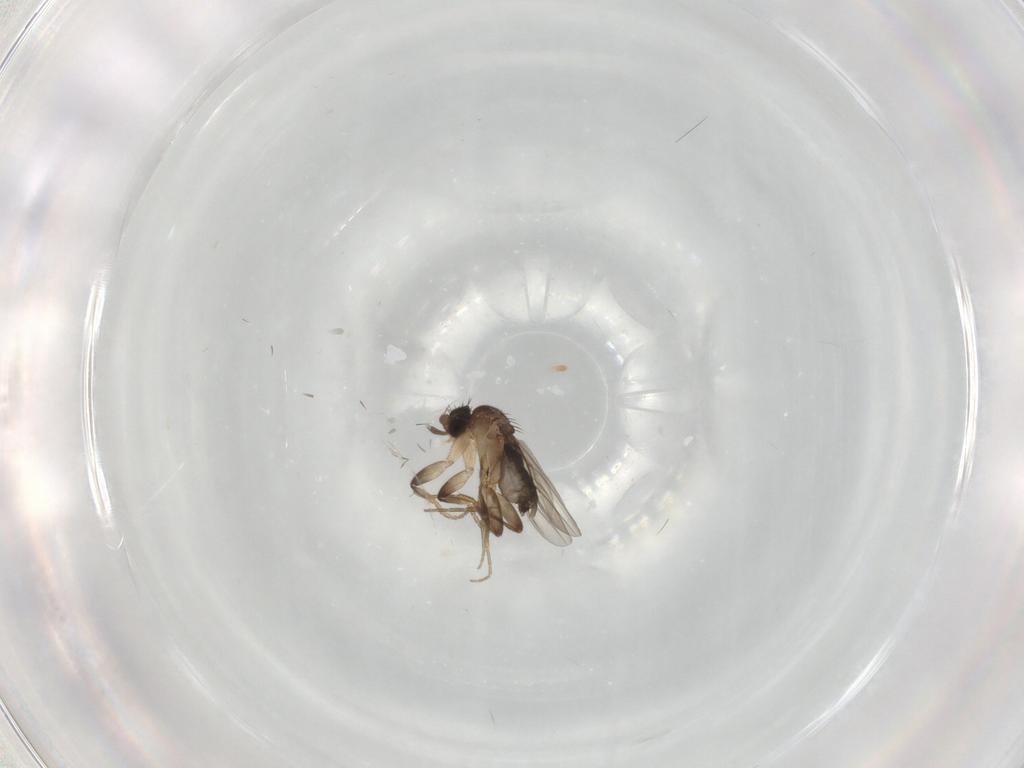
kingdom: Animalia
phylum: Arthropoda
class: Insecta
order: Diptera
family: Phoridae
